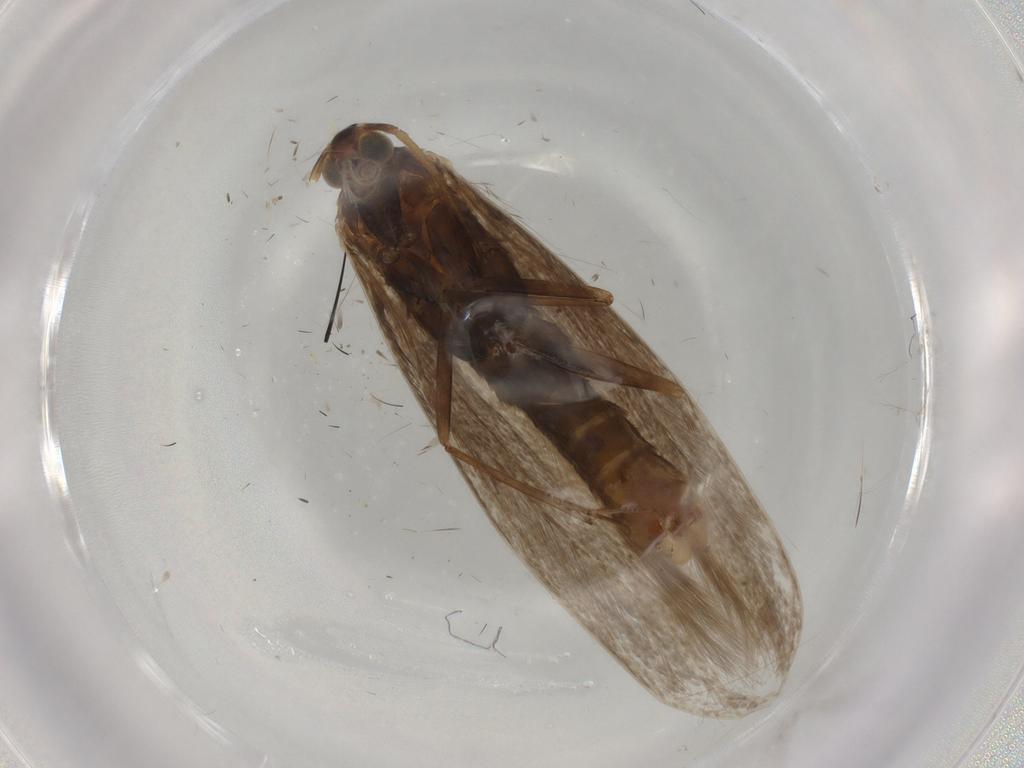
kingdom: Animalia
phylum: Arthropoda
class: Insecta
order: Lepidoptera
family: Coleophoridae
